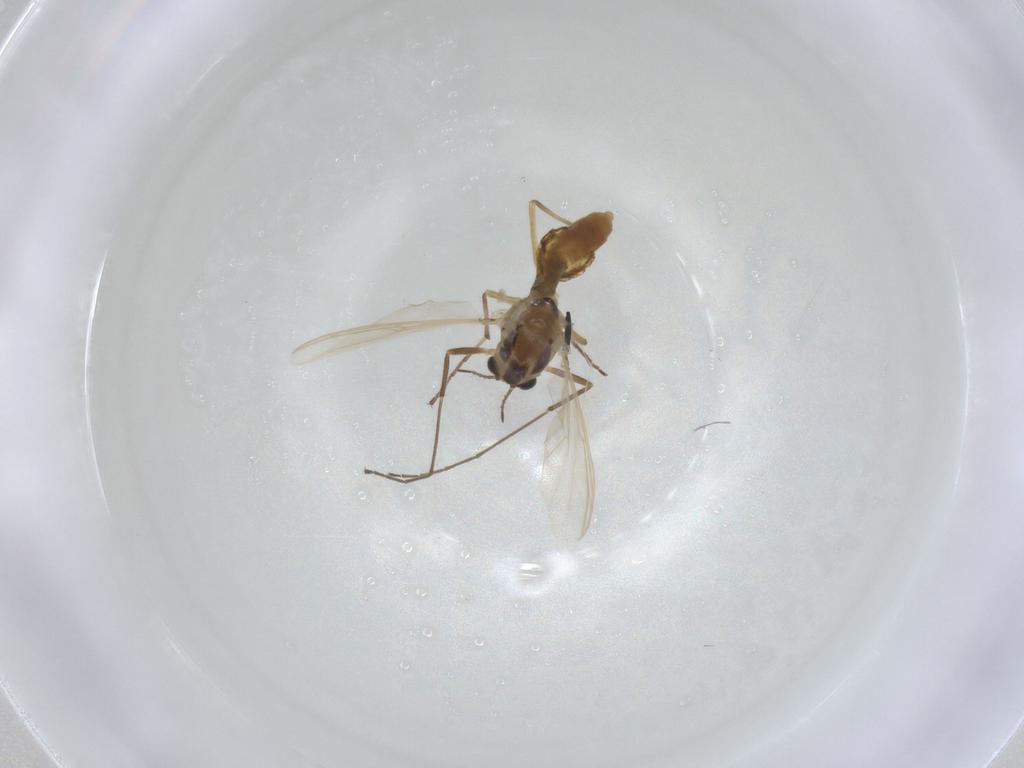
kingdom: Animalia
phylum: Arthropoda
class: Insecta
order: Diptera
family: Chironomidae
